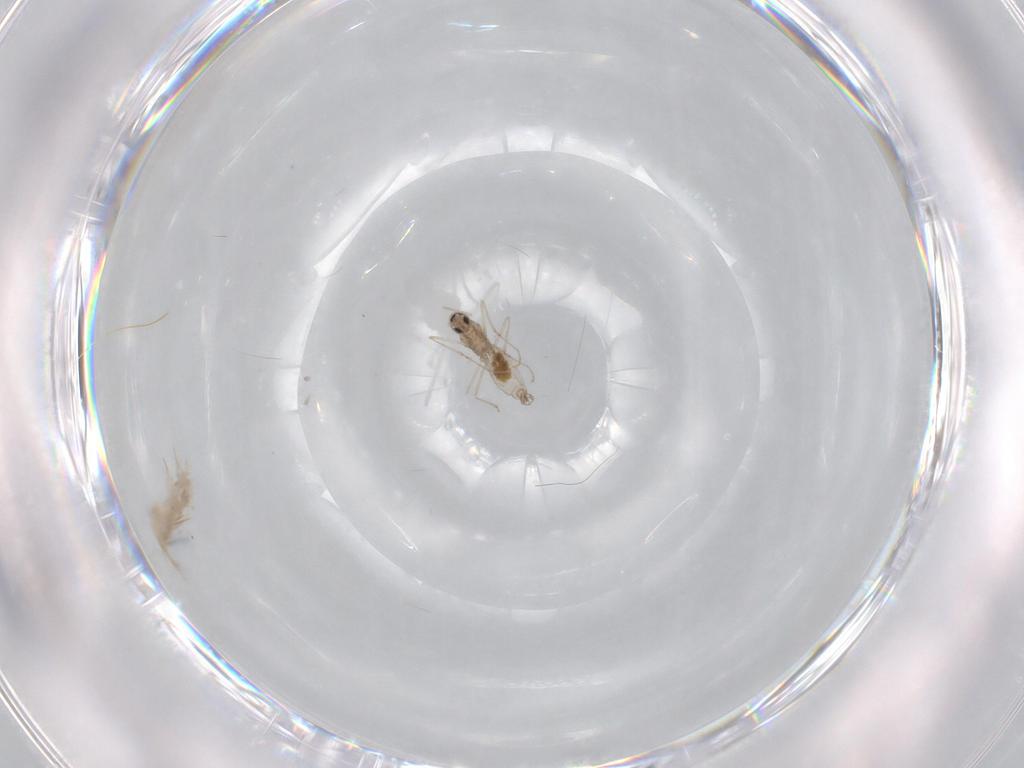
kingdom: Animalia
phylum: Arthropoda
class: Insecta
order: Diptera
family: Cecidomyiidae
